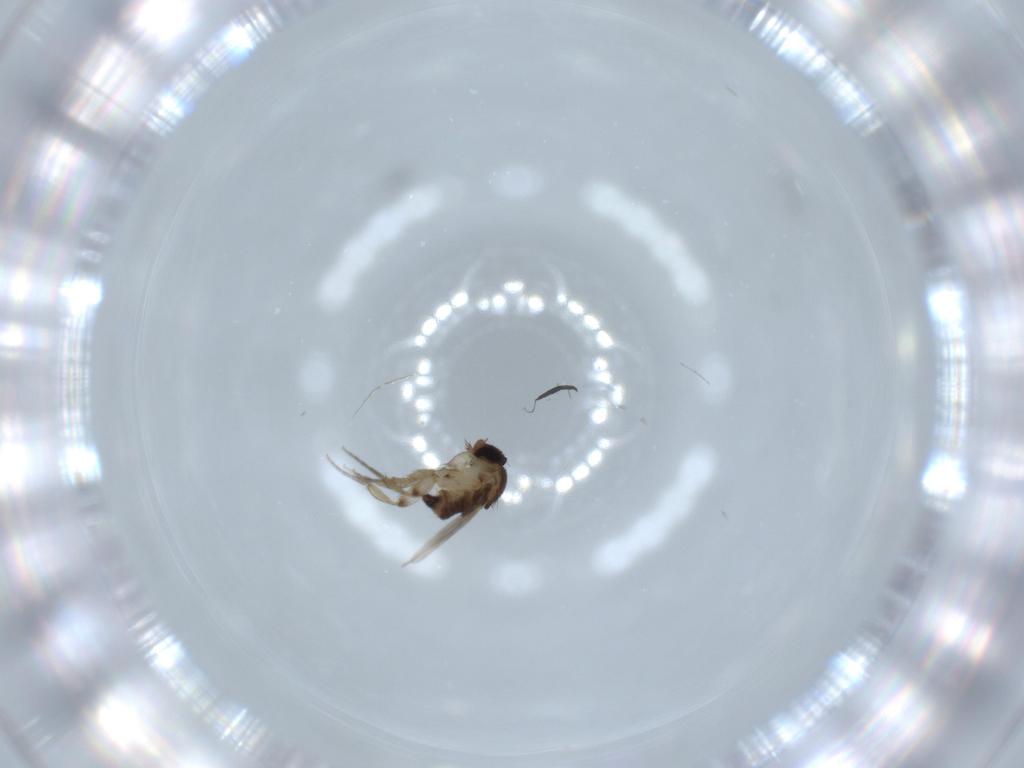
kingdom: Animalia
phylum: Arthropoda
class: Insecta
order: Diptera
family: Phoridae
